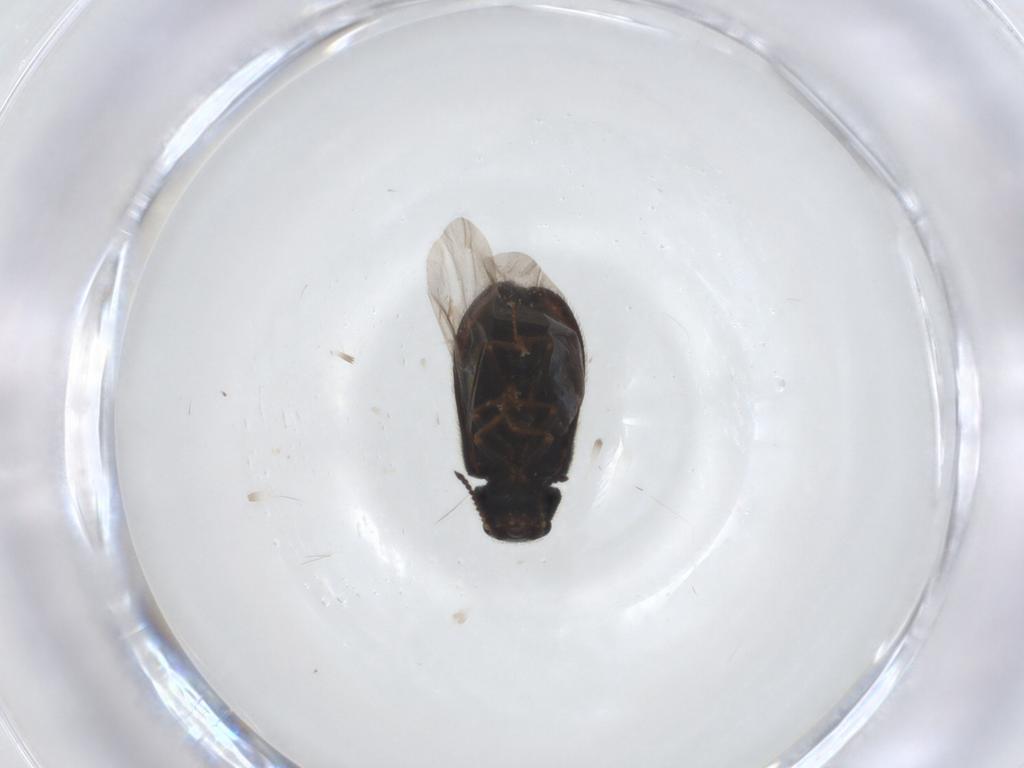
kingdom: Animalia
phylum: Arthropoda
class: Insecta
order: Coleoptera
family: Melyridae
